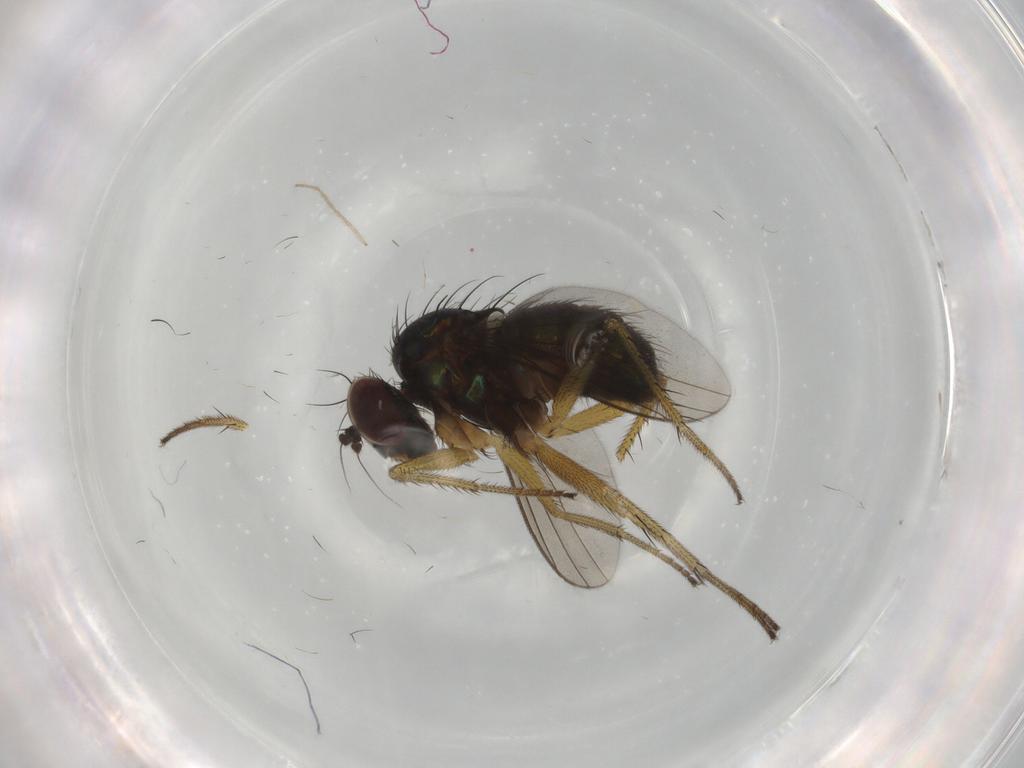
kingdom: Animalia
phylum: Arthropoda
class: Insecta
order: Diptera
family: Dolichopodidae
